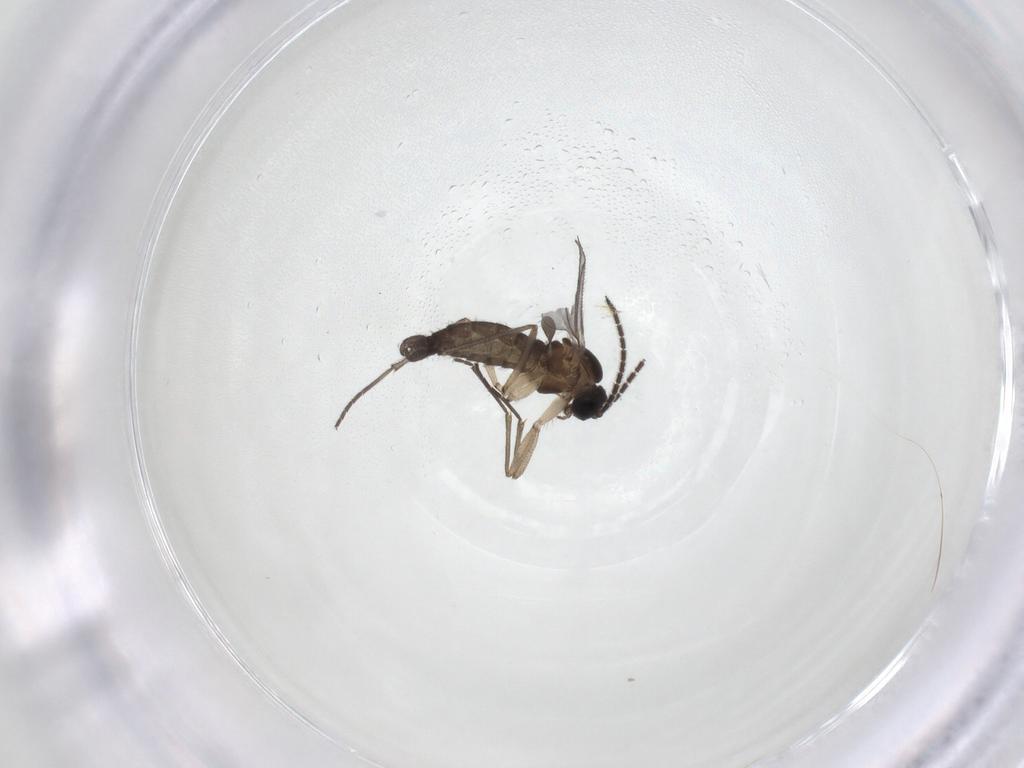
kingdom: Animalia
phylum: Arthropoda
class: Insecta
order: Diptera
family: Sciaridae
